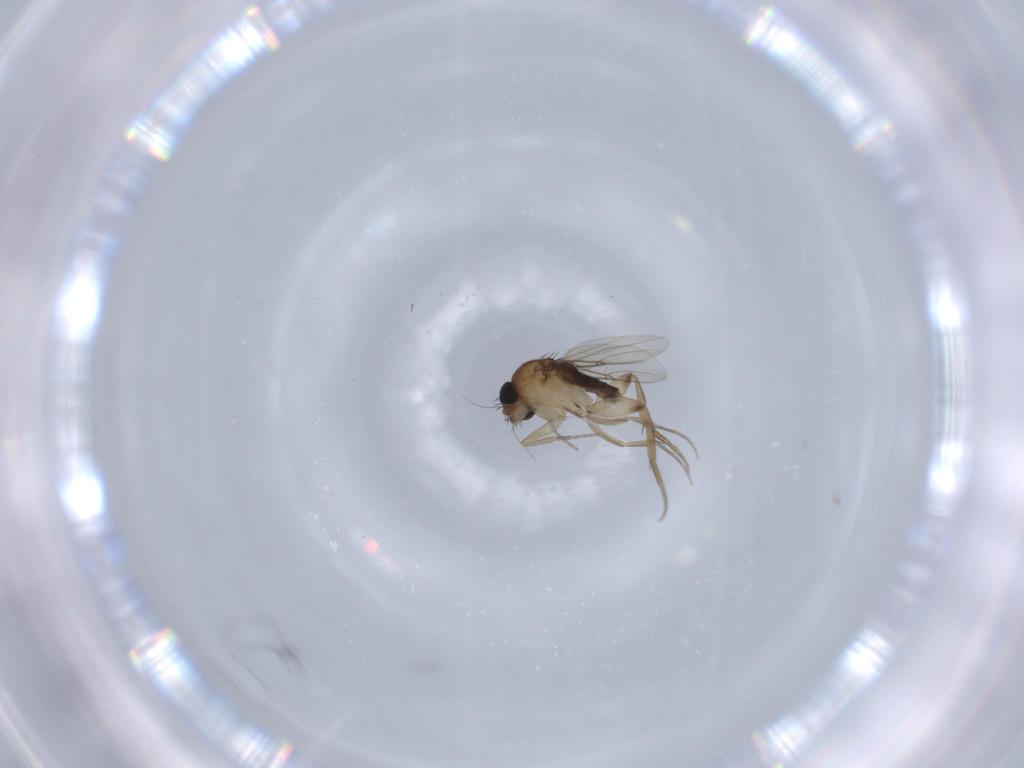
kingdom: Animalia
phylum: Arthropoda
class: Insecta
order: Diptera
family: Phoridae
